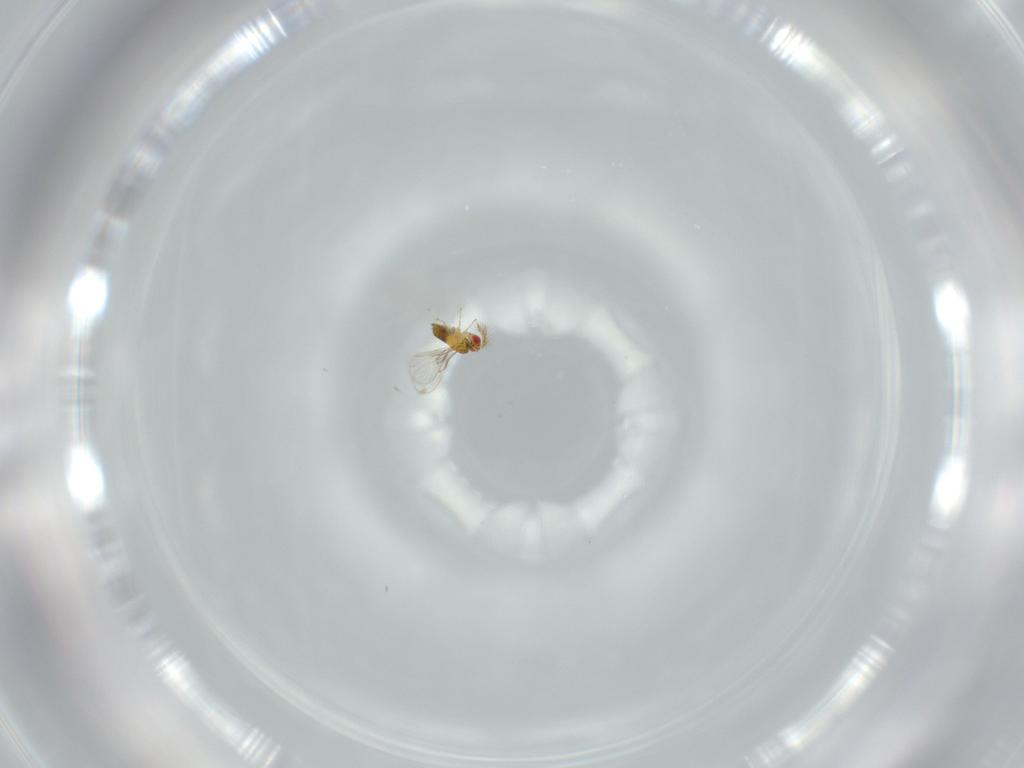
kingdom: Animalia
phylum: Arthropoda
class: Insecta
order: Hymenoptera
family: Trichogrammatidae
